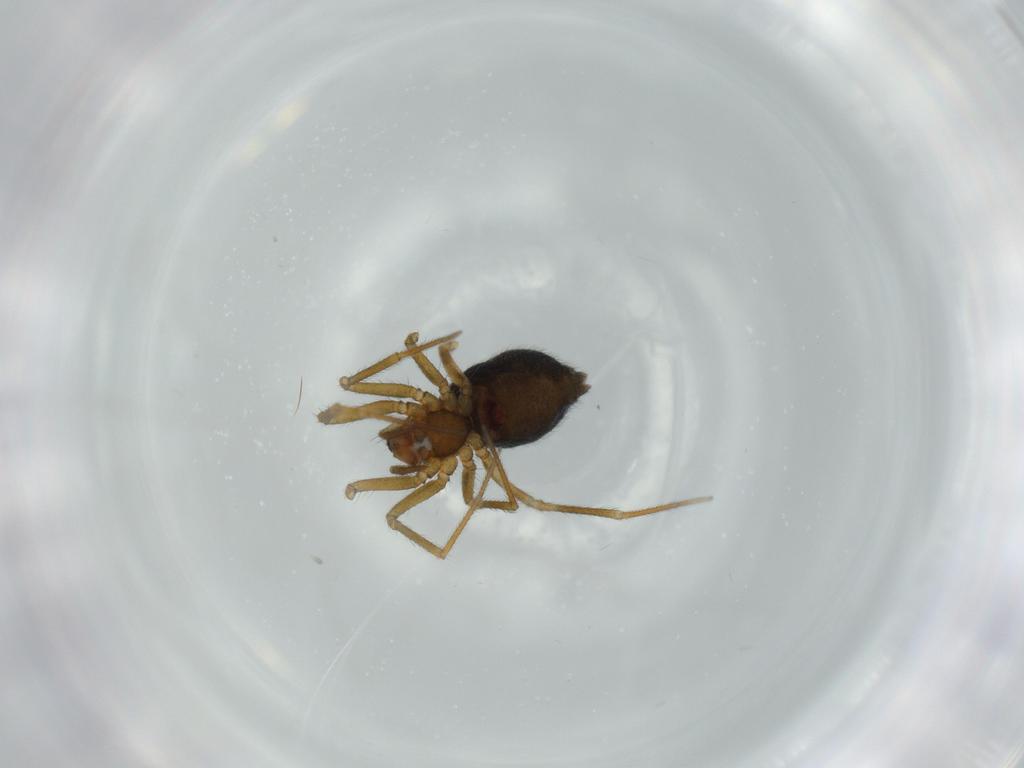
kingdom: Animalia
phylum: Arthropoda
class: Arachnida
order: Araneae
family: Linyphiidae
